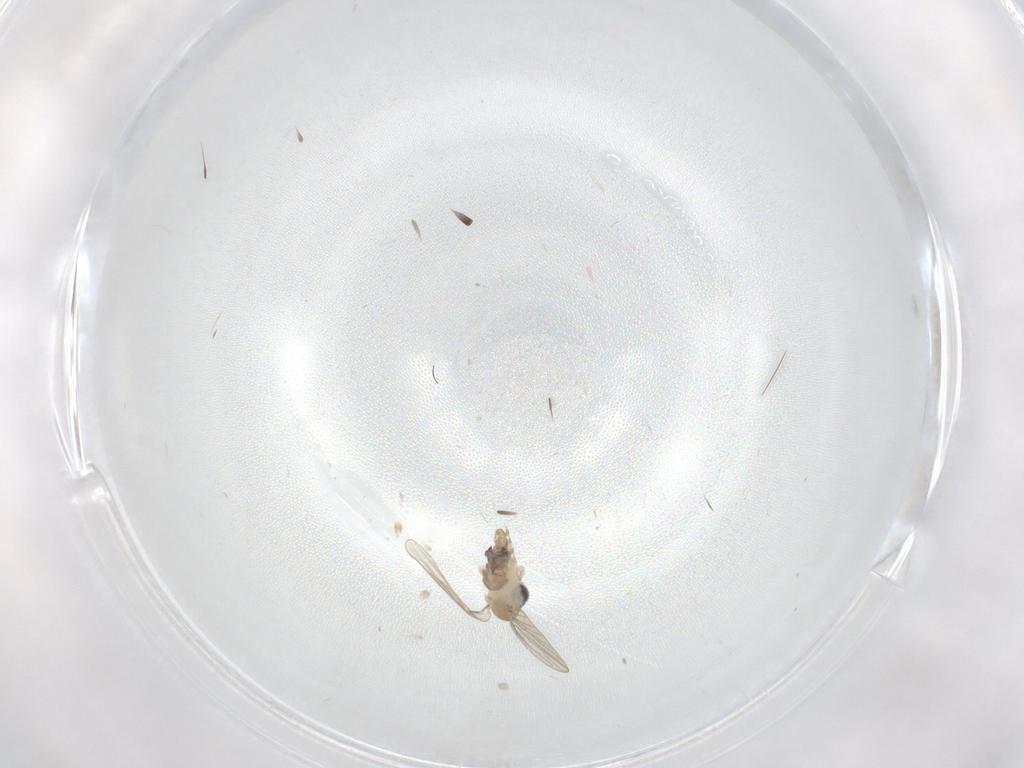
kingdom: Animalia
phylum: Arthropoda
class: Insecta
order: Diptera
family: Psychodidae
